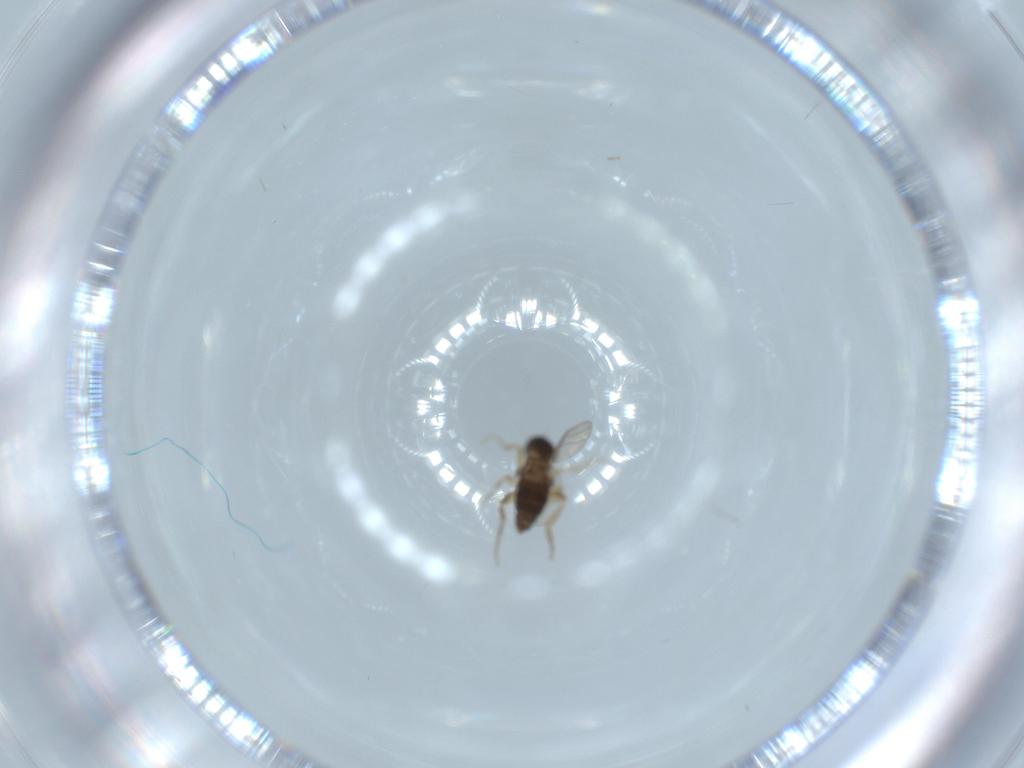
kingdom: Animalia
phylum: Arthropoda
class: Insecta
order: Diptera
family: Phoridae
